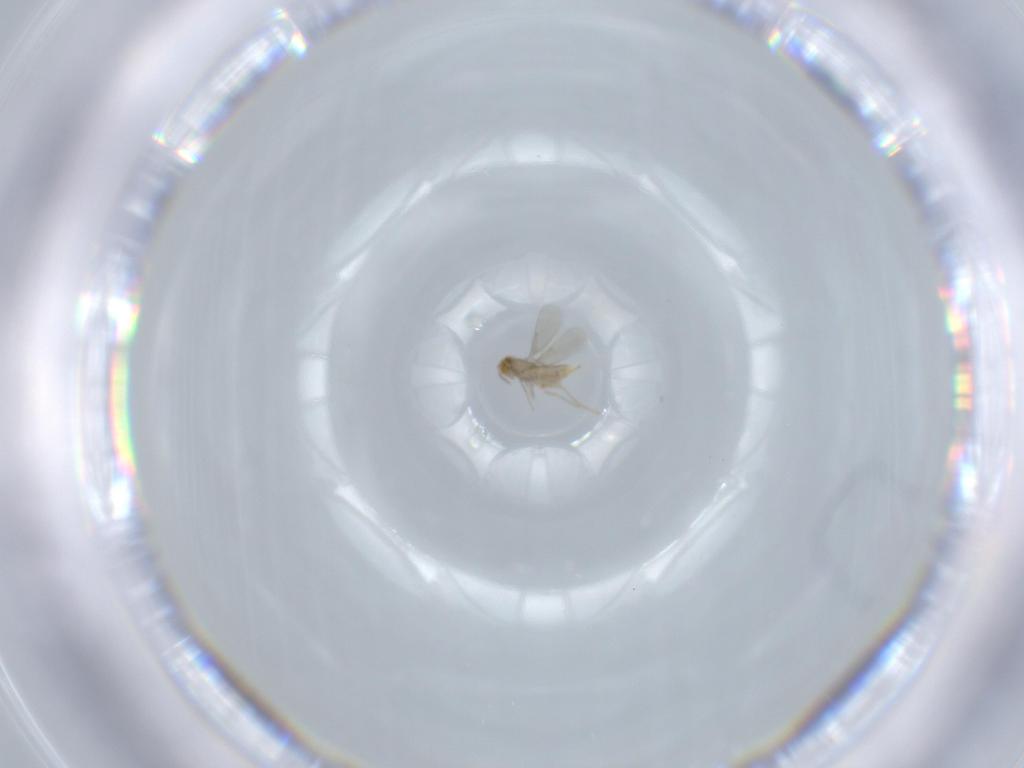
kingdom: Animalia
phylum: Arthropoda
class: Insecta
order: Hymenoptera
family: Aphelinidae
